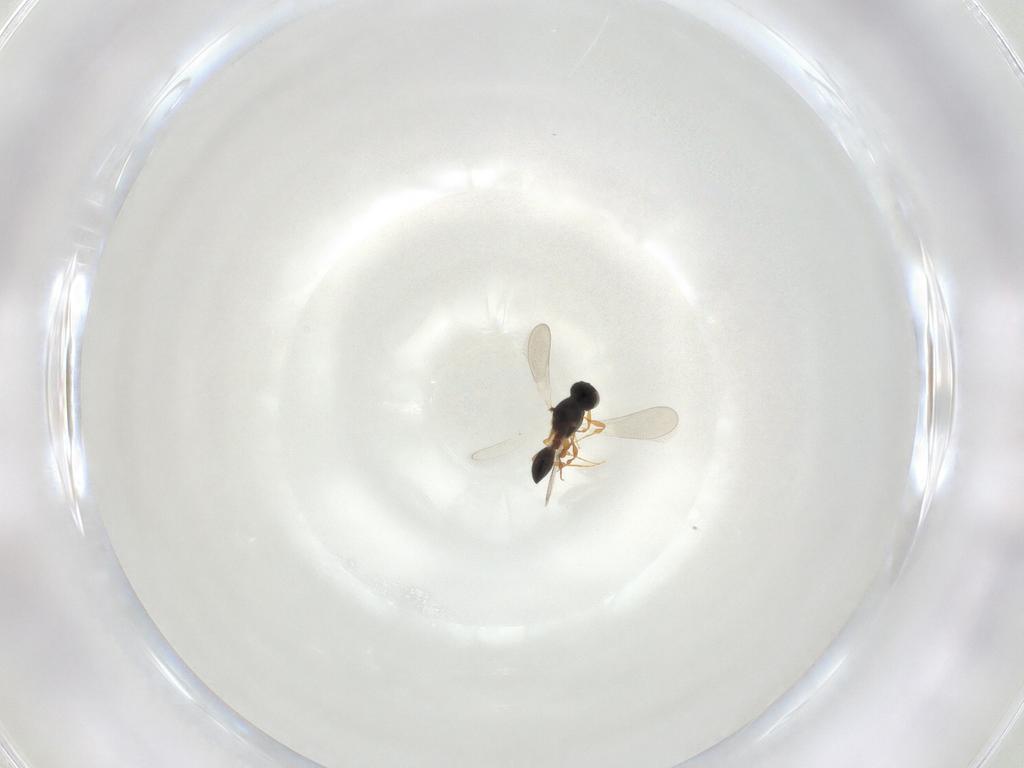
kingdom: Animalia
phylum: Arthropoda
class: Insecta
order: Hymenoptera
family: Platygastridae
